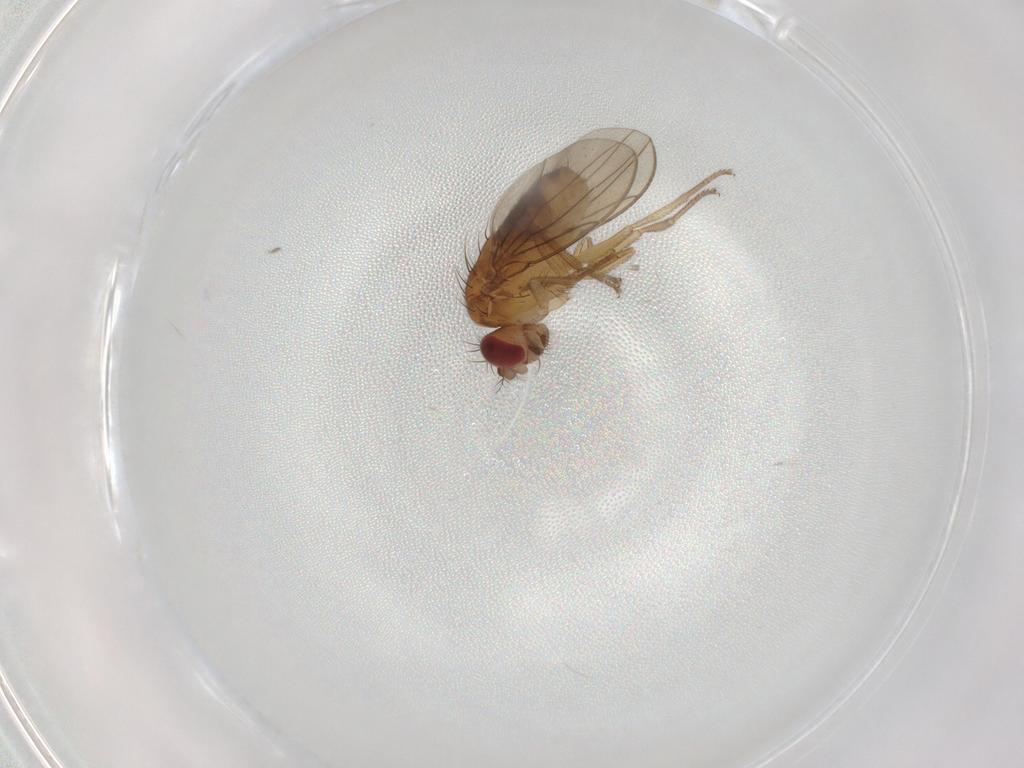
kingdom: Animalia
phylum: Arthropoda
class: Insecta
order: Diptera
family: Drosophilidae
